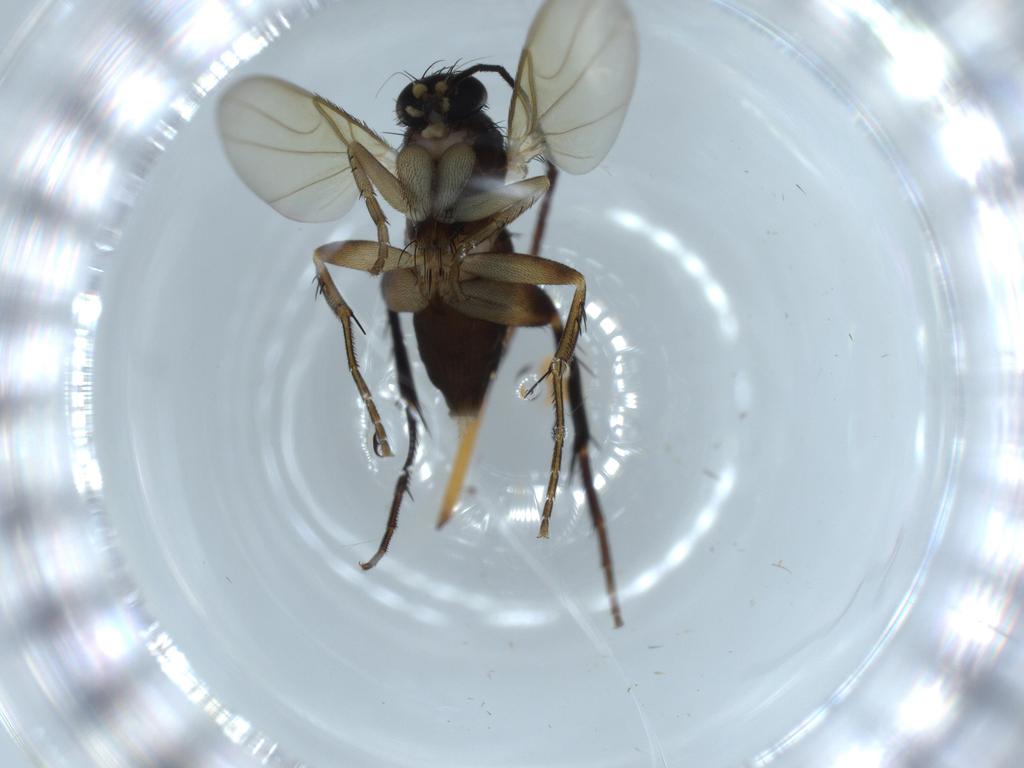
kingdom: Animalia
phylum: Arthropoda
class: Insecta
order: Diptera
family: Phoridae
